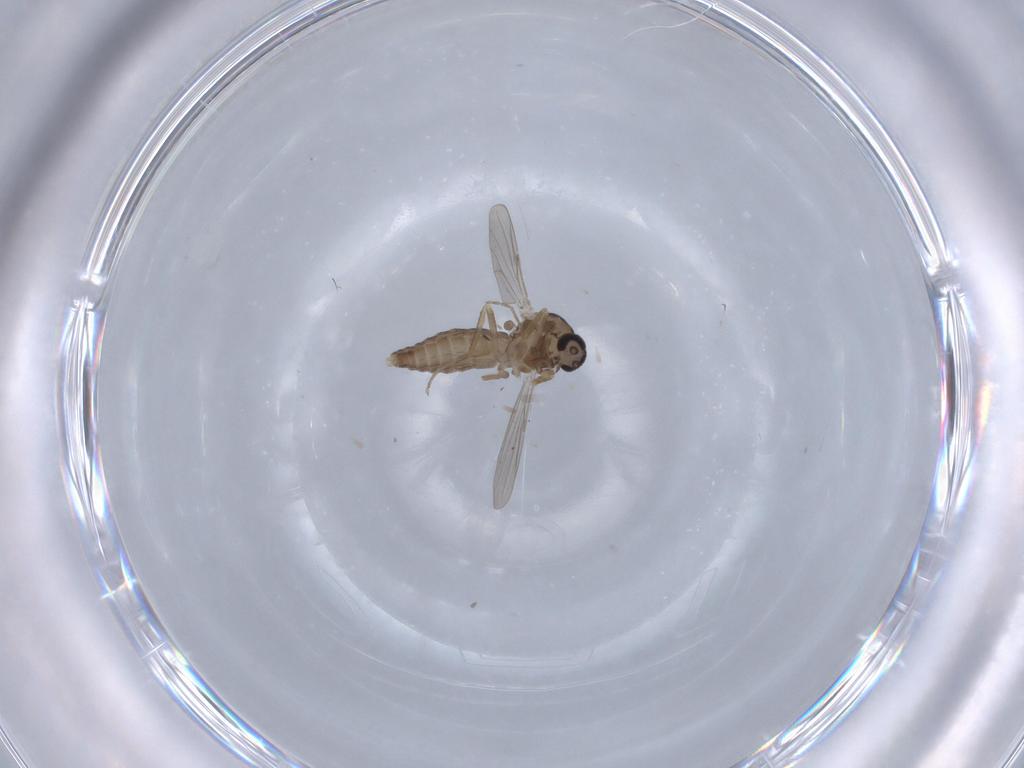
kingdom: Animalia
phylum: Arthropoda
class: Insecta
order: Diptera
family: Ceratopogonidae
